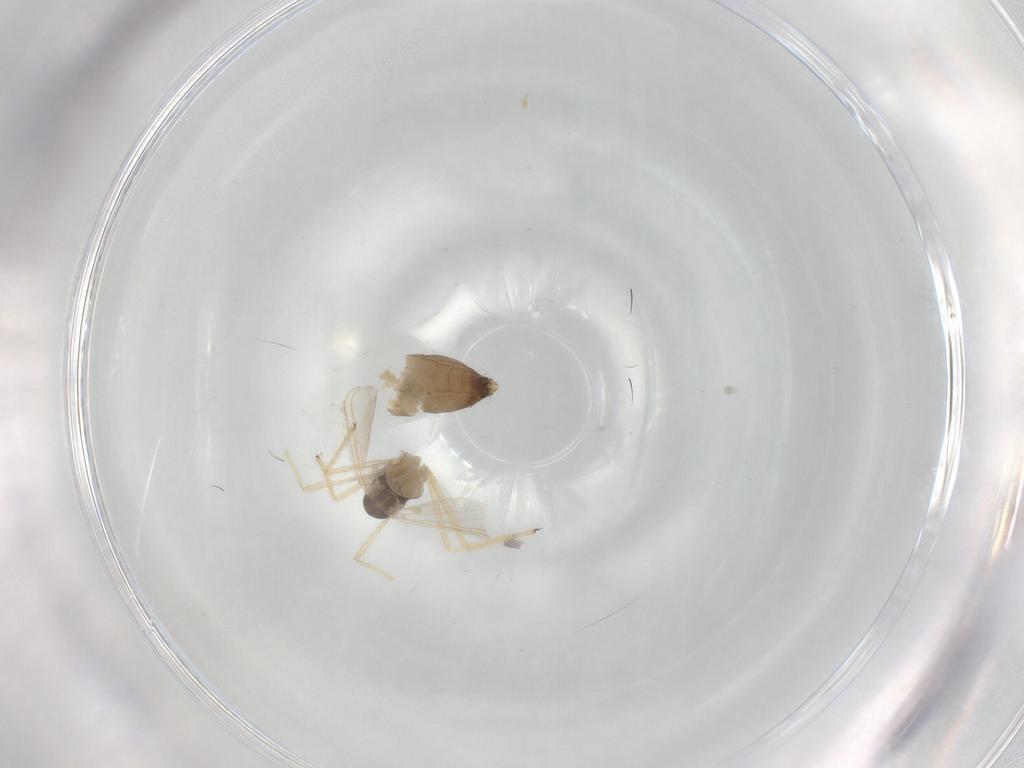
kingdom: Animalia
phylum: Arthropoda
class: Insecta
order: Diptera
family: Chironomidae
